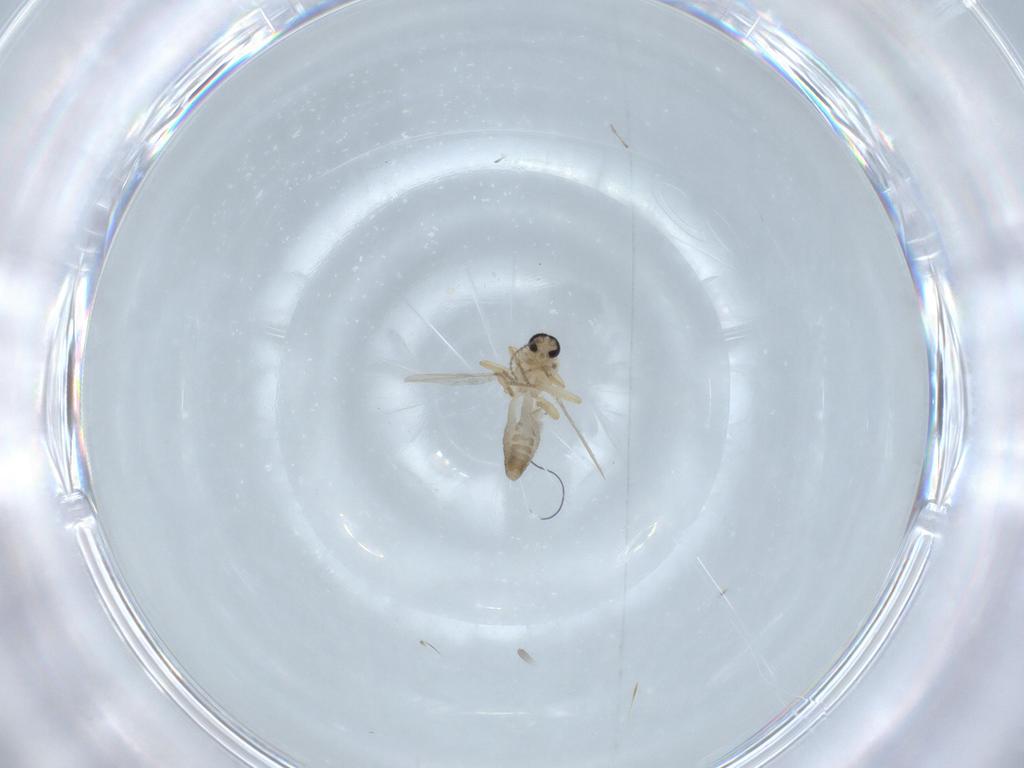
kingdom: Animalia
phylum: Arthropoda
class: Insecta
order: Diptera
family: Ceratopogonidae
